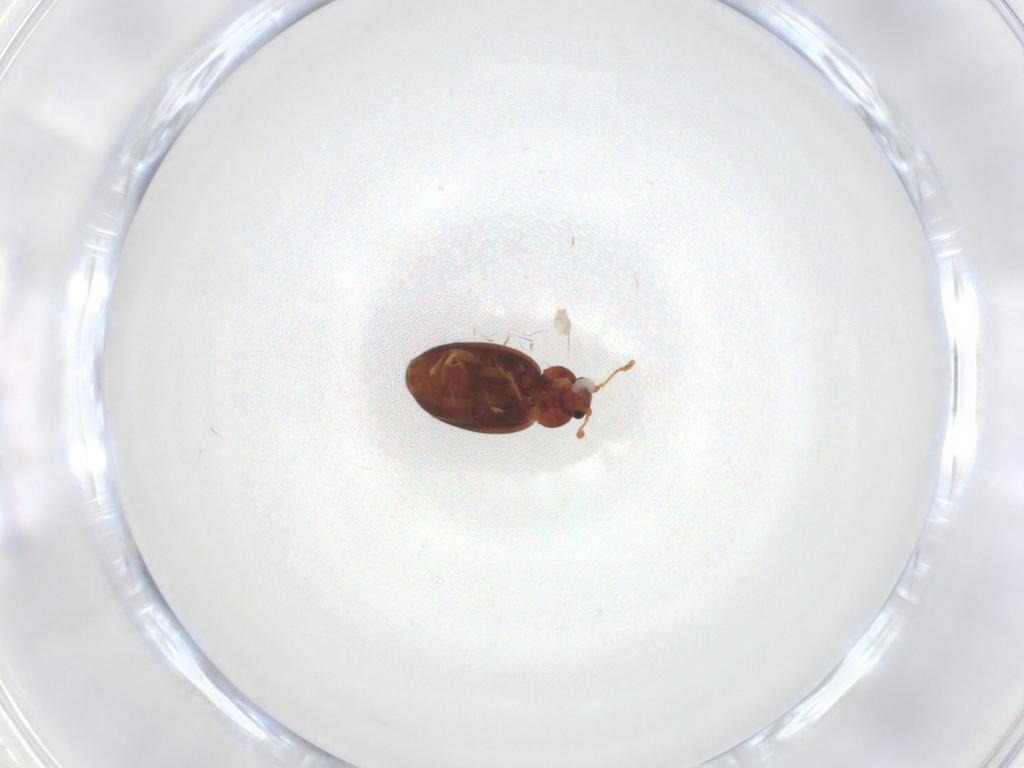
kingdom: Animalia
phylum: Arthropoda
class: Insecta
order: Coleoptera
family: Latridiidae
